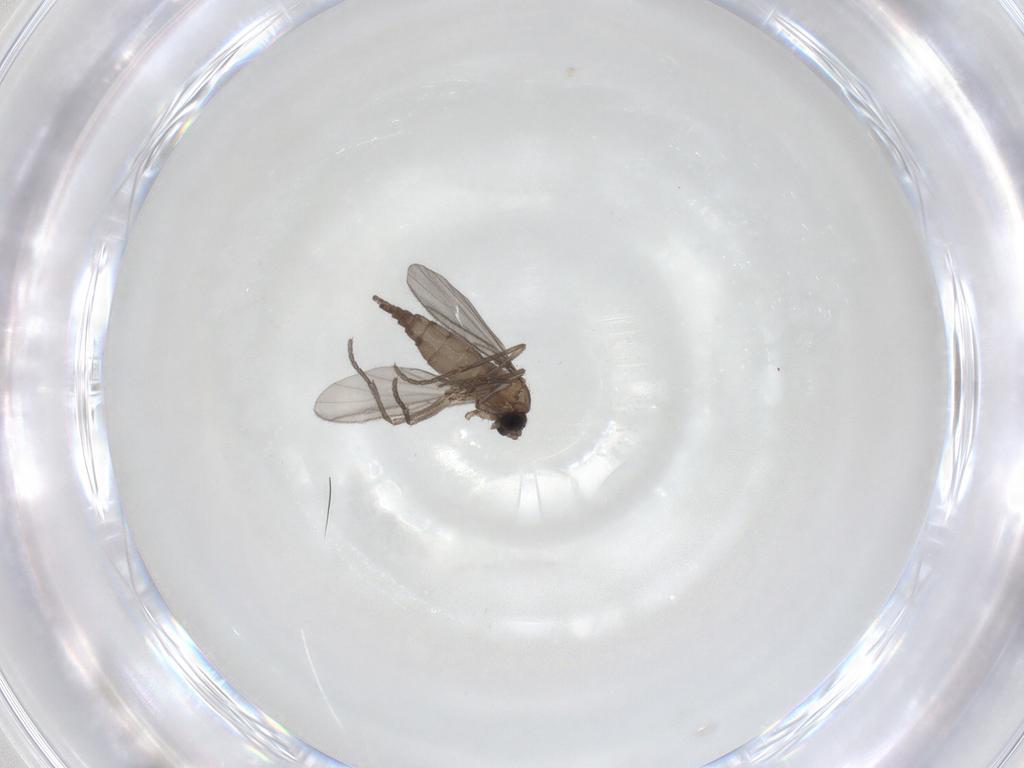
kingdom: Animalia
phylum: Arthropoda
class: Insecta
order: Diptera
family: Sciaridae
